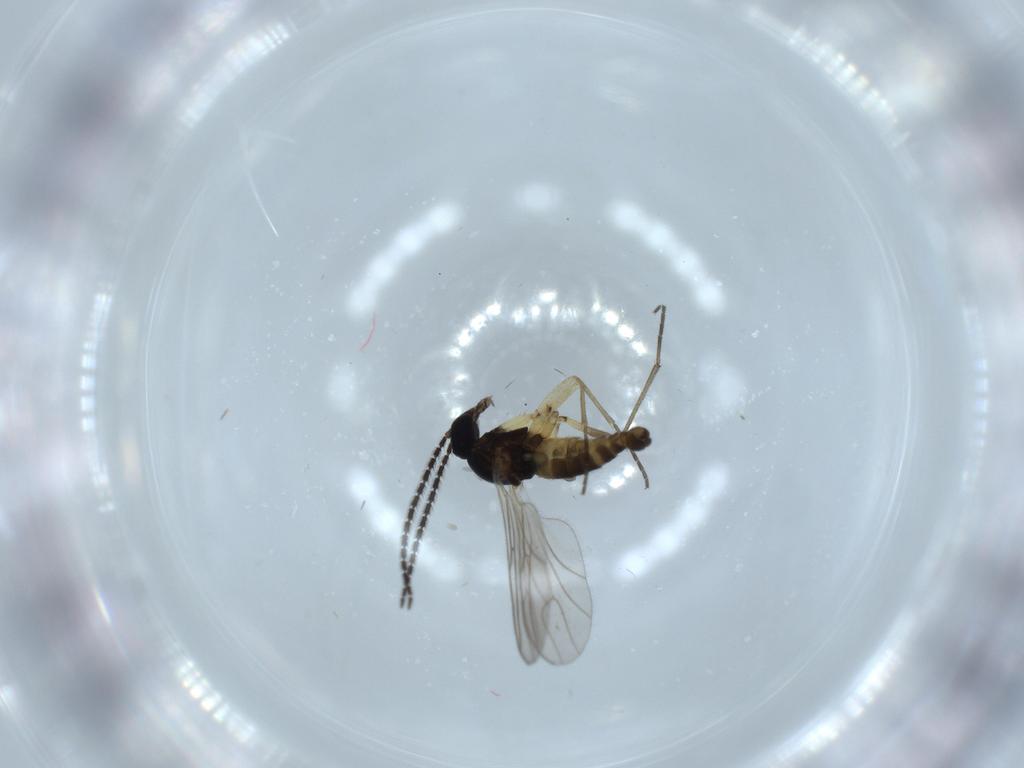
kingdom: Animalia
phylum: Arthropoda
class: Insecta
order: Diptera
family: Sciaridae
